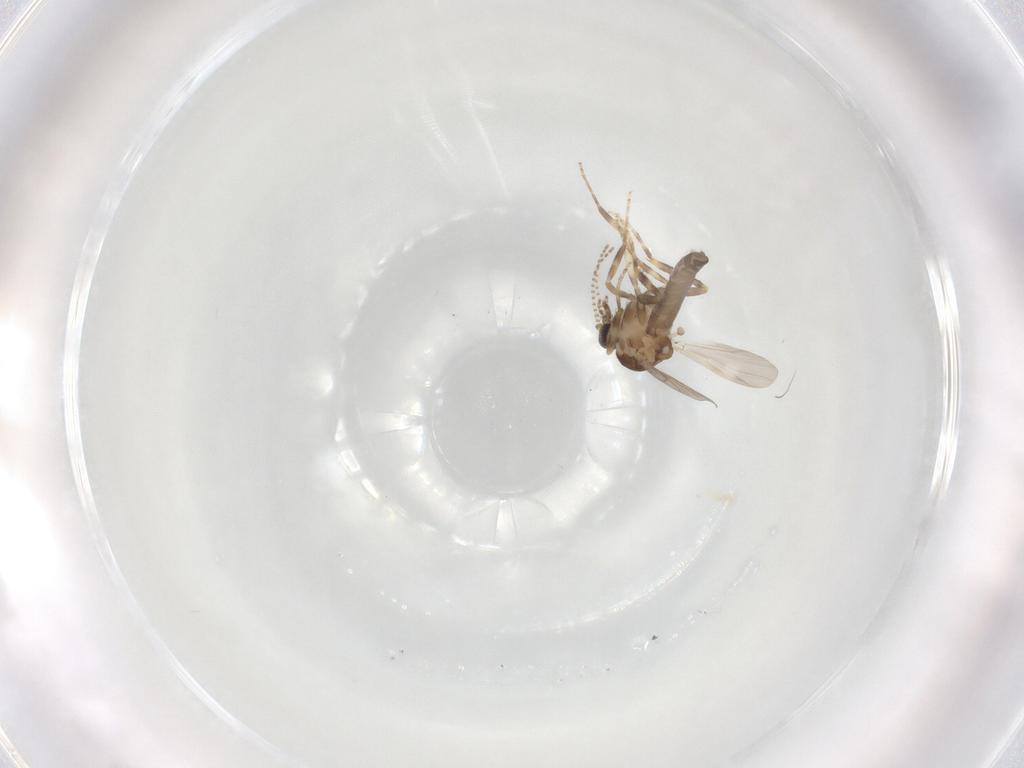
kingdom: Animalia
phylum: Arthropoda
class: Insecta
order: Diptera
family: Ceratopogonidae
